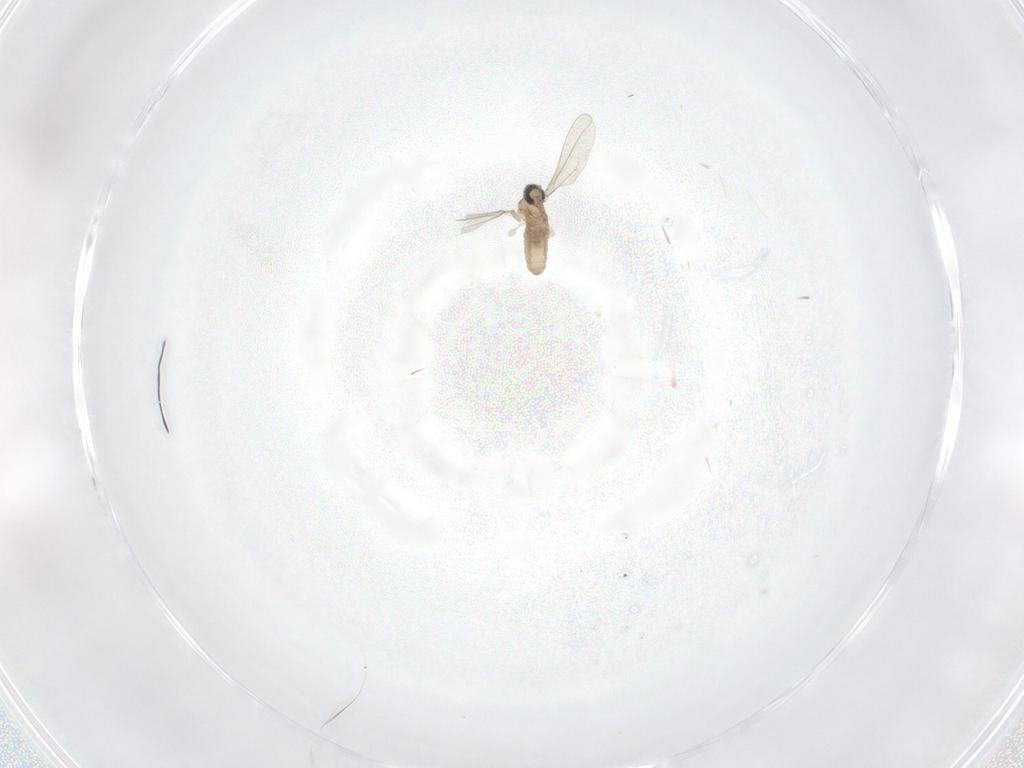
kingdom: Animalia
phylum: Arthropoda
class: Insecta
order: Diptera
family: Cecidomyiidae
